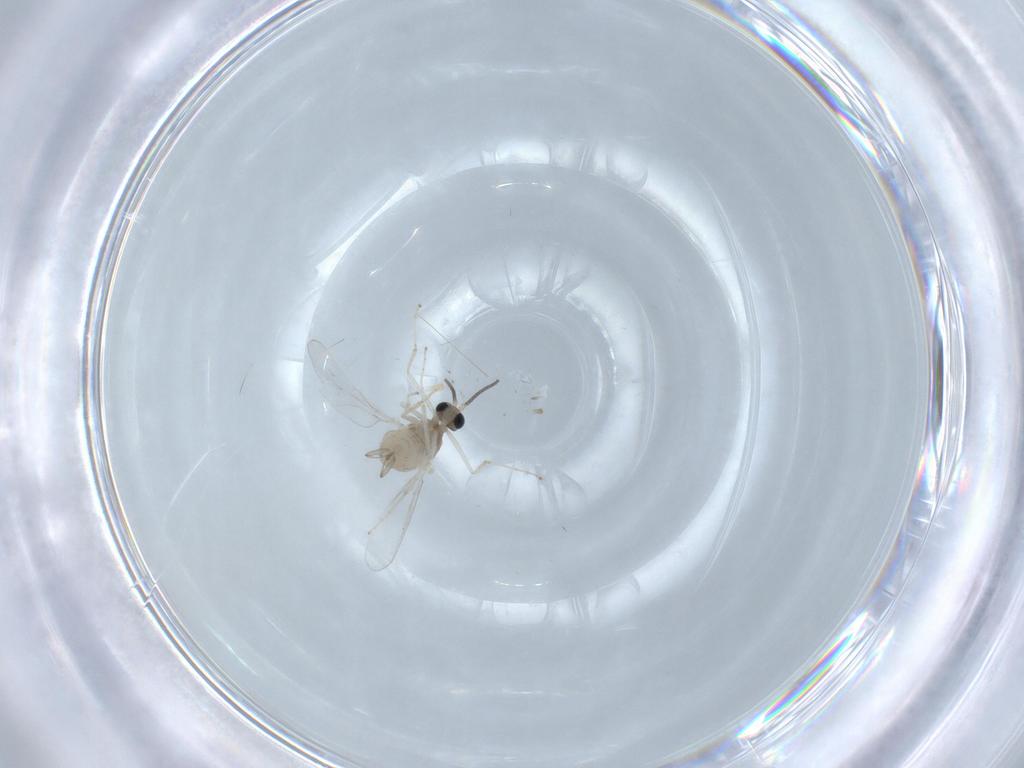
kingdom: Animalia
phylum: Arthropoda
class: Insecta
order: Diptera
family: Cecidomyiidae
